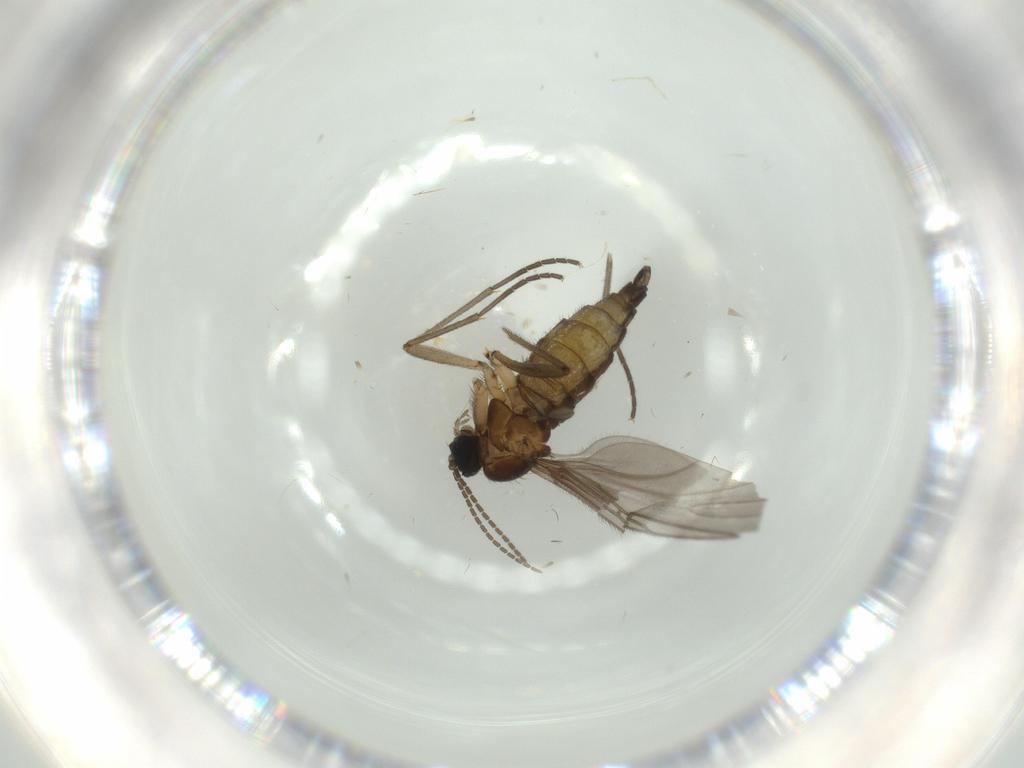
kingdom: Animalia
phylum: Arthropoda
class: Insecta
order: Diptera
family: Sciaridae
